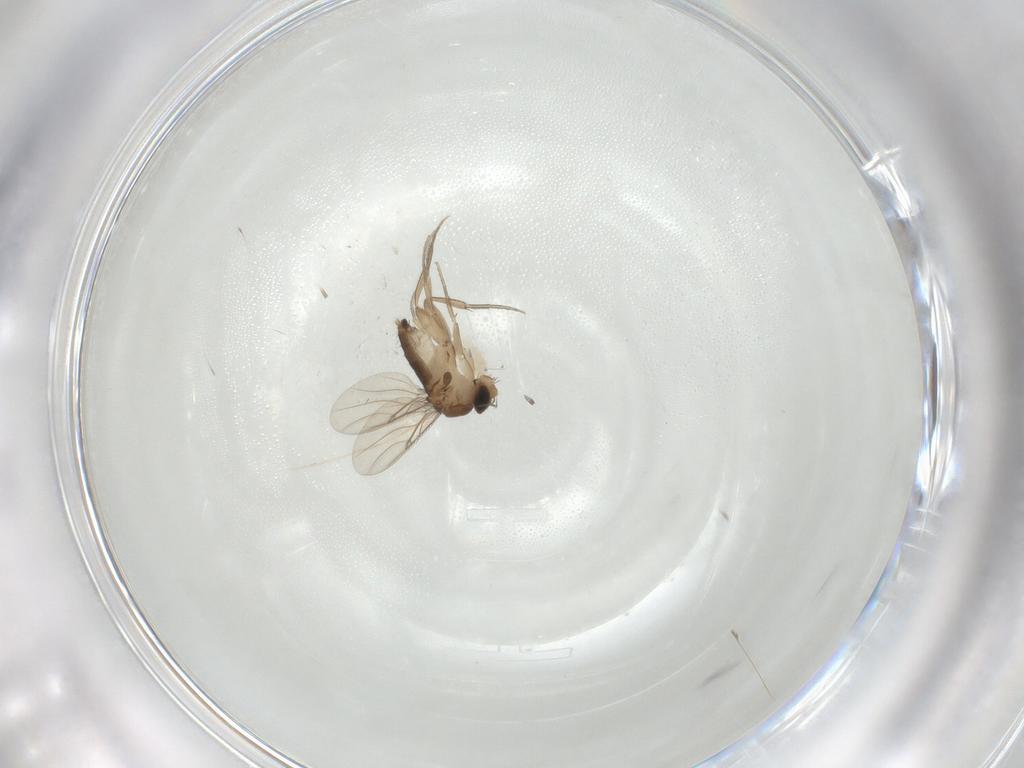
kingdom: Animalia
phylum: Arthropoda
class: Insecta
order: Diptera
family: Cecidomyiidae
